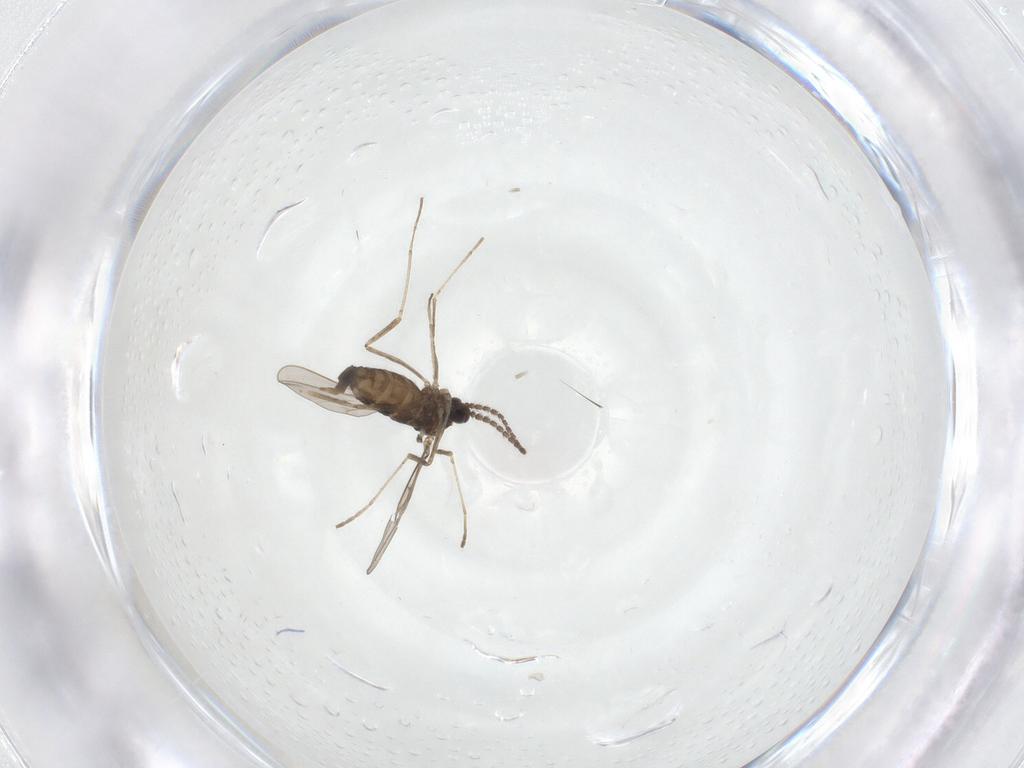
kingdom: Animalia
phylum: Arthropoda
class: Insecta
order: Diptera
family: Cecidomyiidae
